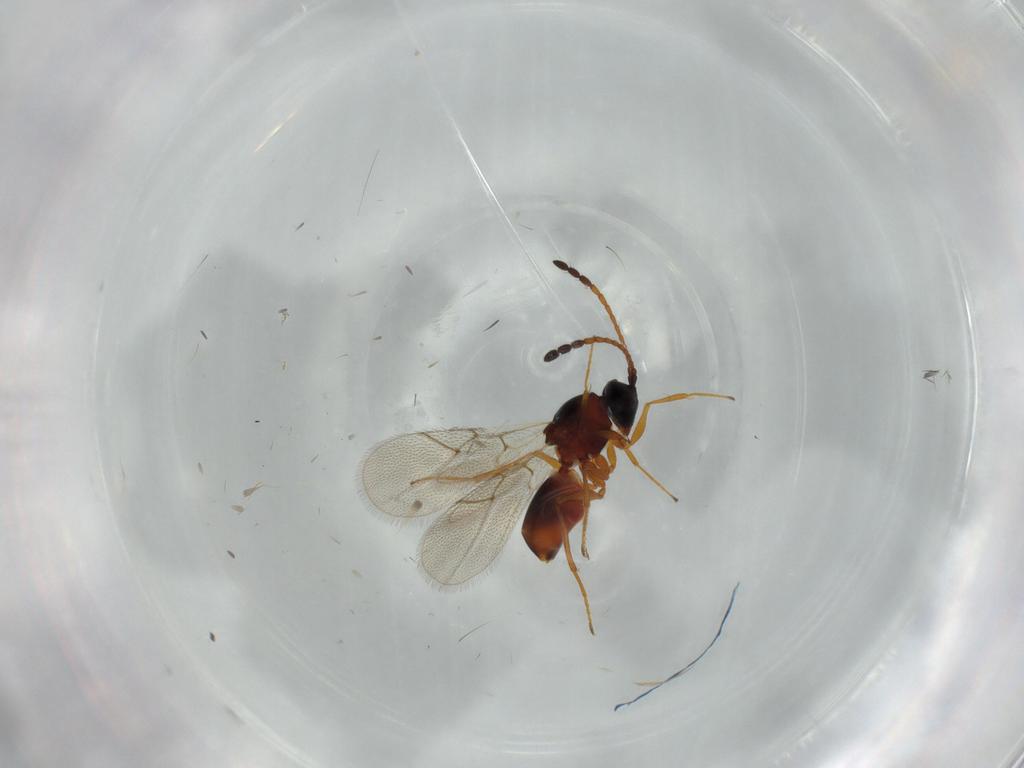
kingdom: Animalia
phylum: Arthropoda
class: Insecta
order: Hymenoptera
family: Figitidae
